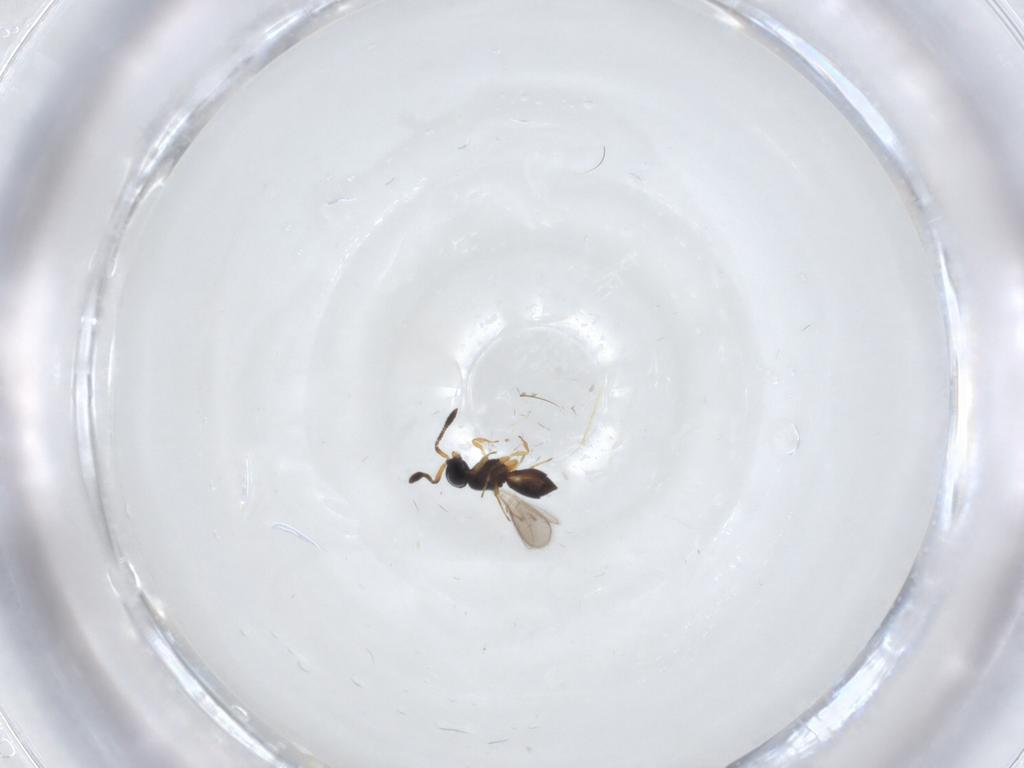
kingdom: Animalia
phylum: Arthropoda
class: Insecta
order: Hymenoptera
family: Scelionidae
